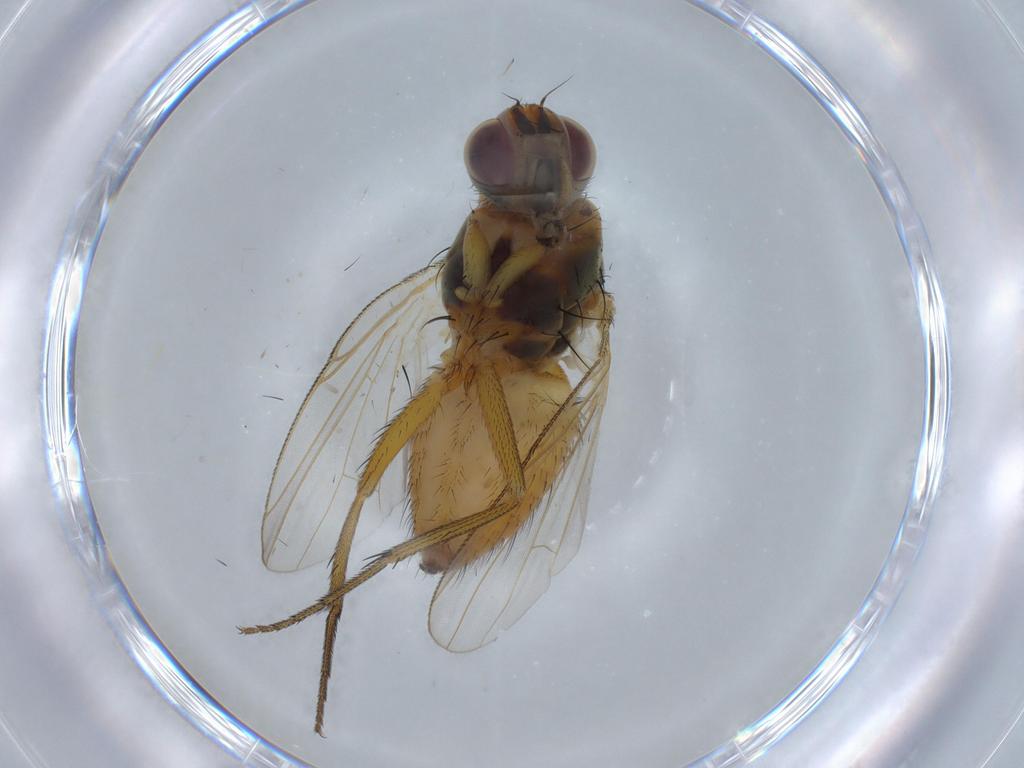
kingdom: Animalia
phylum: Arthropoda
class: Insecta
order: Diptera
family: Muscidae
